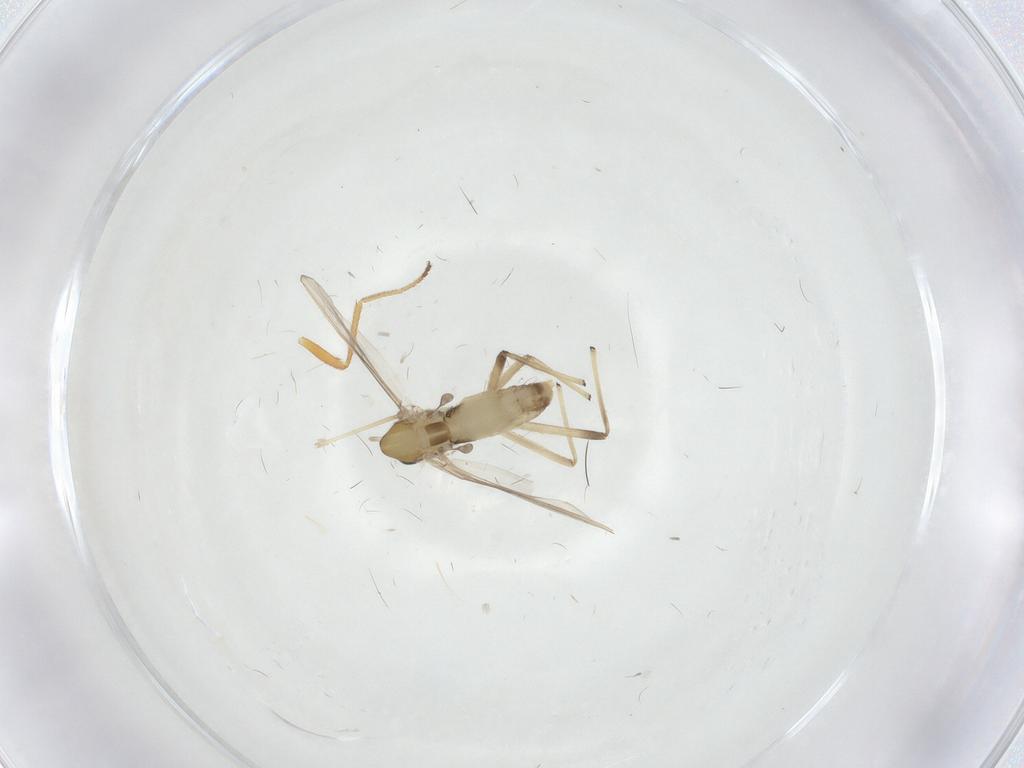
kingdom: Animalia
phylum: Arthropoda
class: Insecta
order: Diptera
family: Chironomidae
